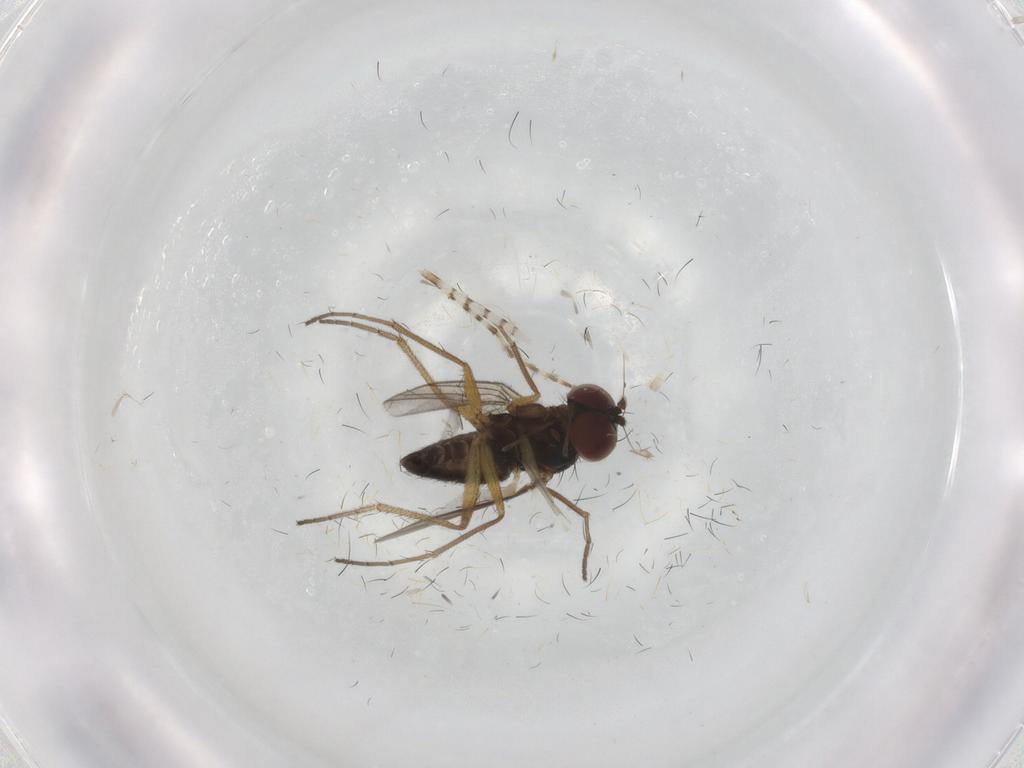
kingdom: Animalia
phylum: Arthropoda
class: Insecta
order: Diptera
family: Dolichopodidae
